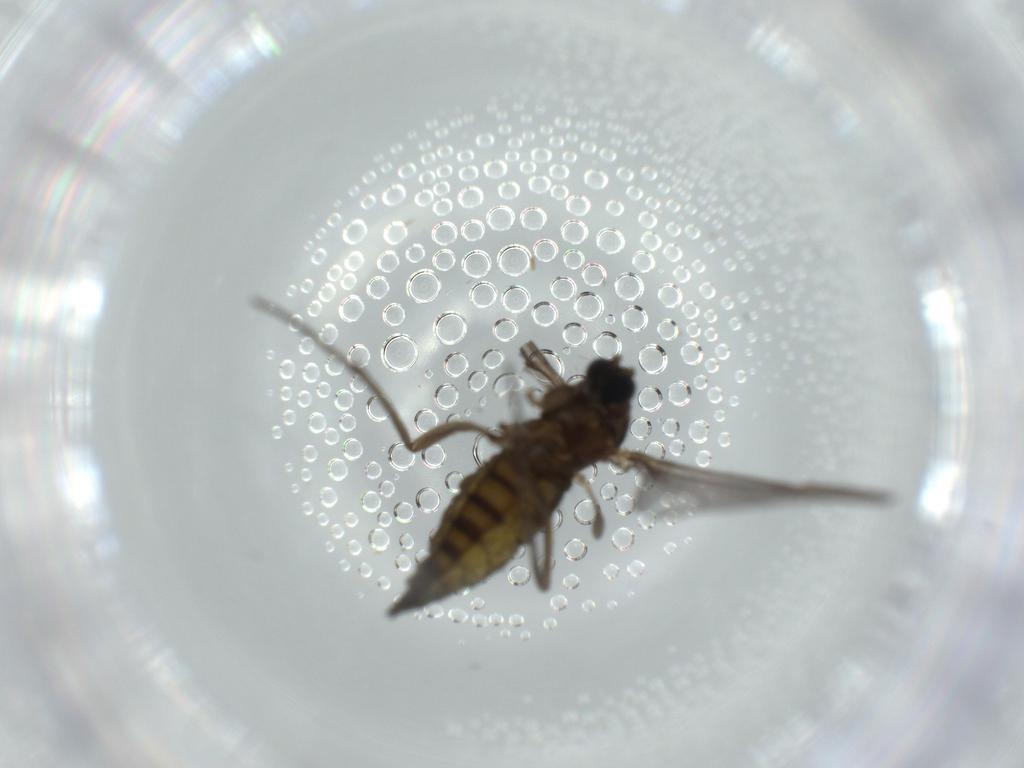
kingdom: Animalia
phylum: Arthropoda
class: Insecta
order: Diptera
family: Sciaridae
